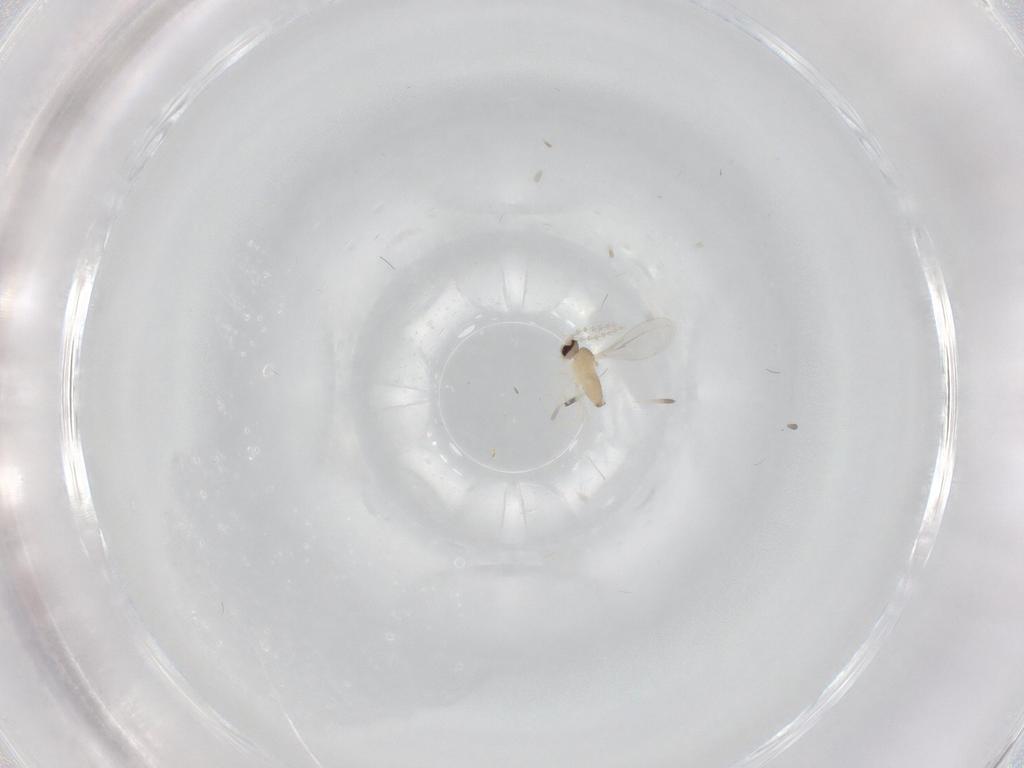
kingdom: Animalia
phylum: Arthropoda
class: Insecta
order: Diptera
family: Cecidomyiidae
